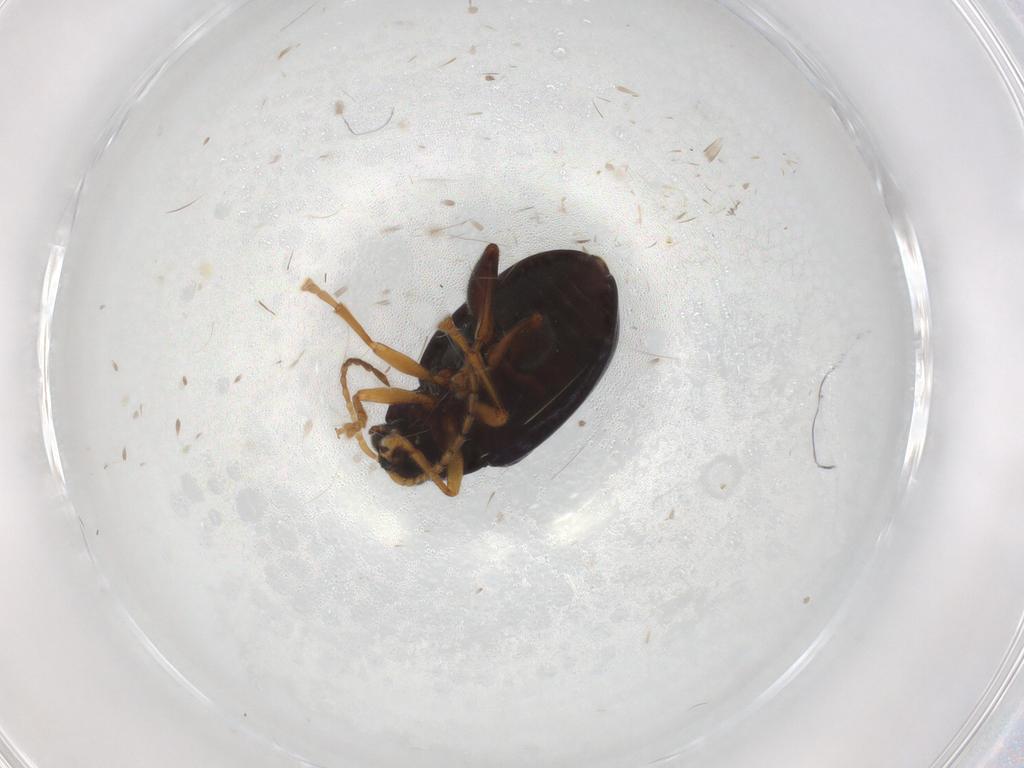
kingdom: Animalia
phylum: Arthropoda
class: Insecta
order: Coleoptera
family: Chrysomelidae
